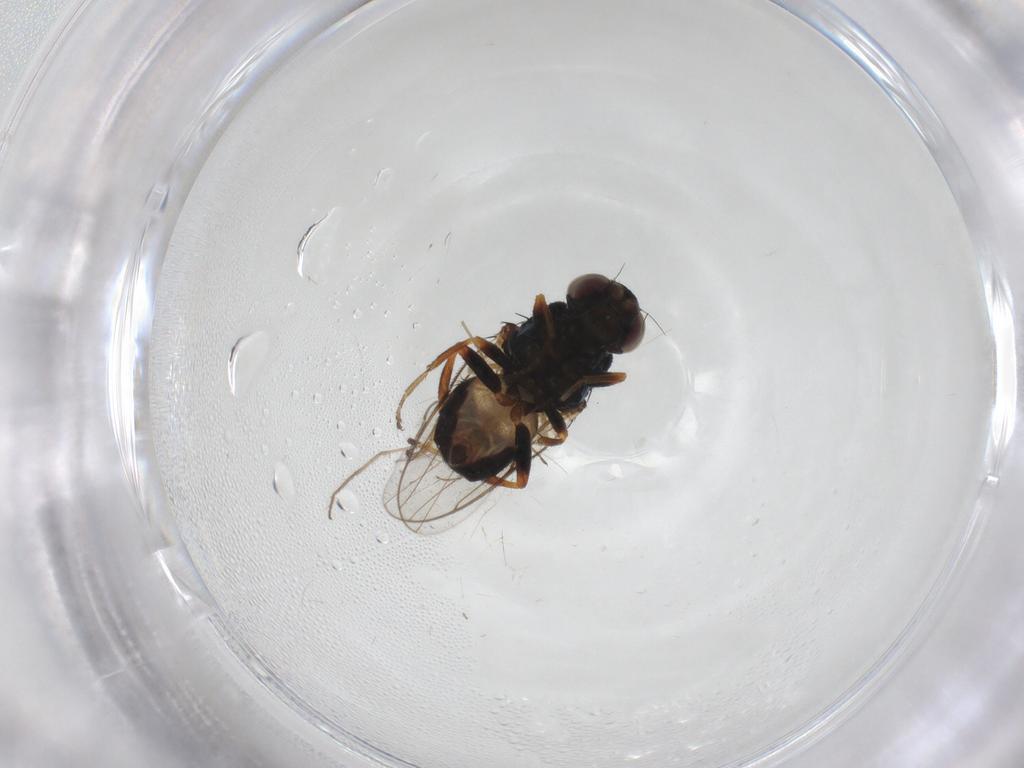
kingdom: Animalia
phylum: Arthropoda
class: Insecta
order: Diptera
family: Chloropidae
